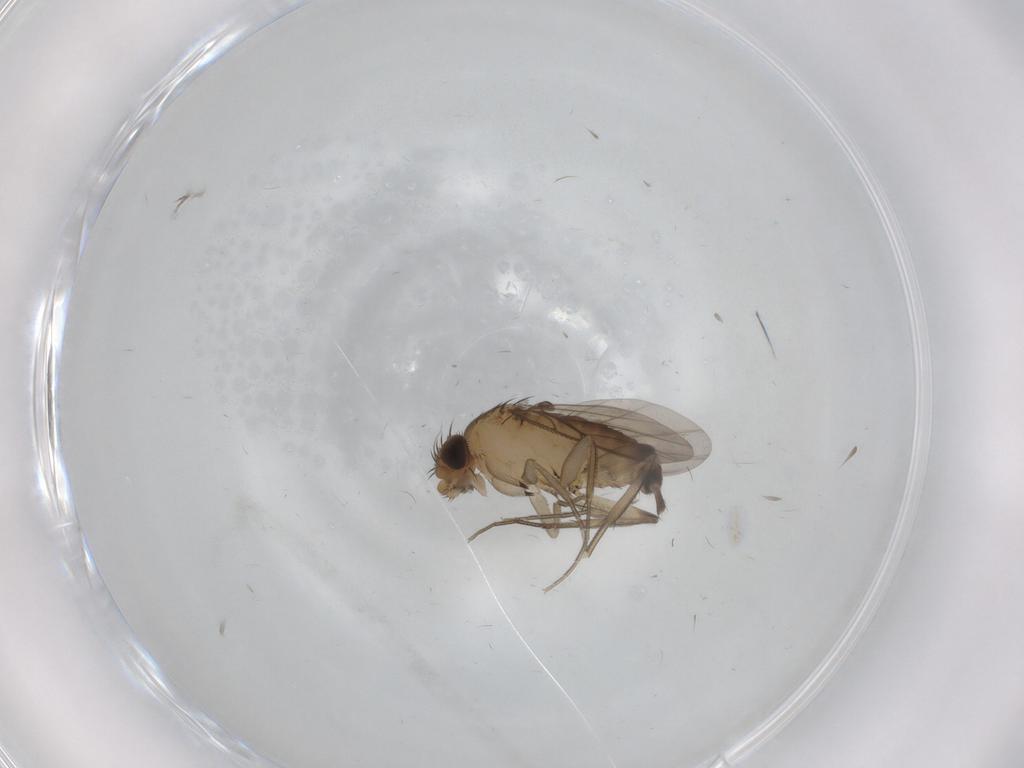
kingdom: Animalia
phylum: Arthropoda
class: Insecta
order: Diptera
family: Phoridae
